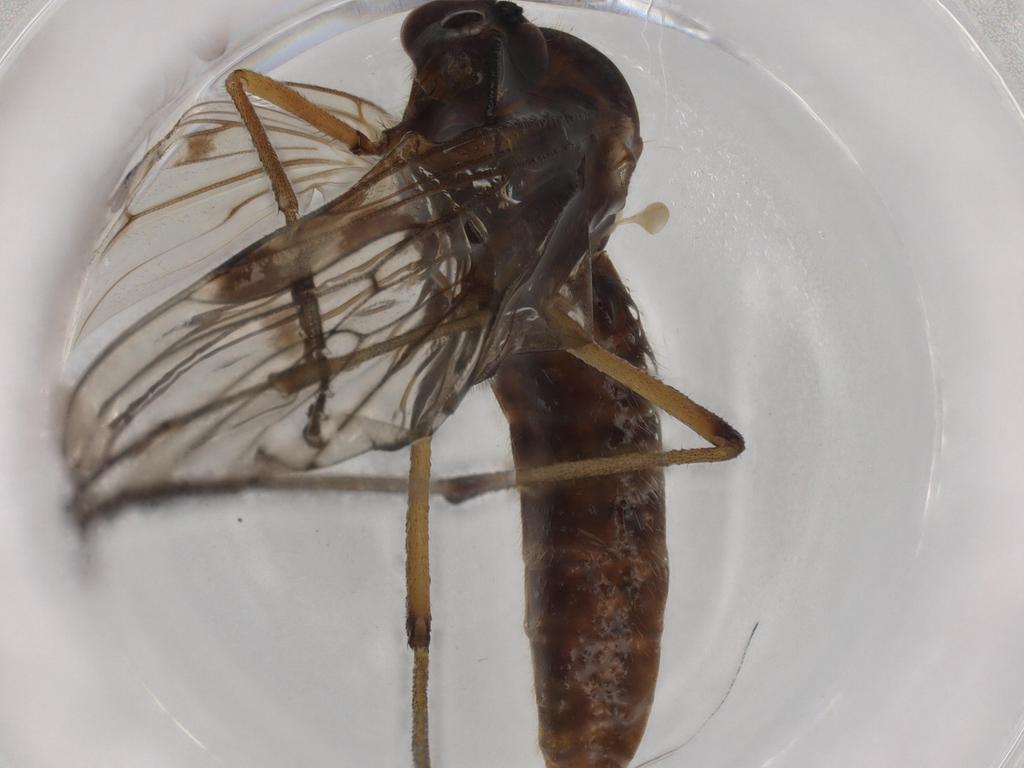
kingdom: Animalia
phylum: Arthropoda
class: Insecta
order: Diptera
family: Anisopodidae
